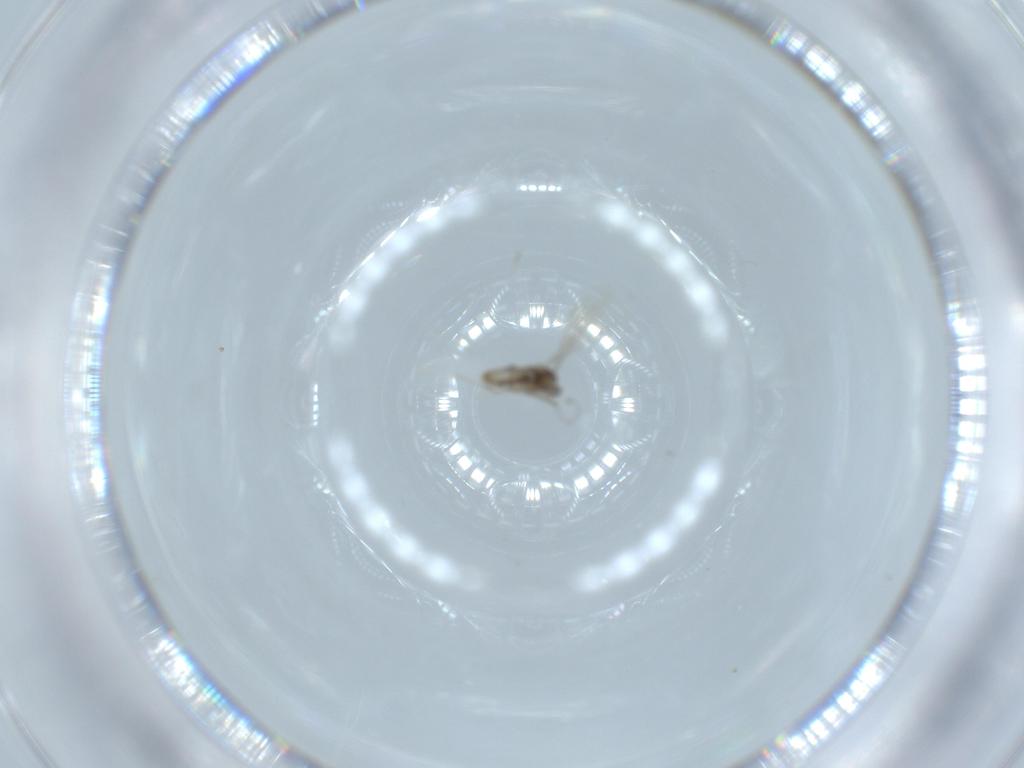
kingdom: Animalia
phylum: Arthropoda
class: Insecta
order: Diptera
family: Cecidomyiidae
